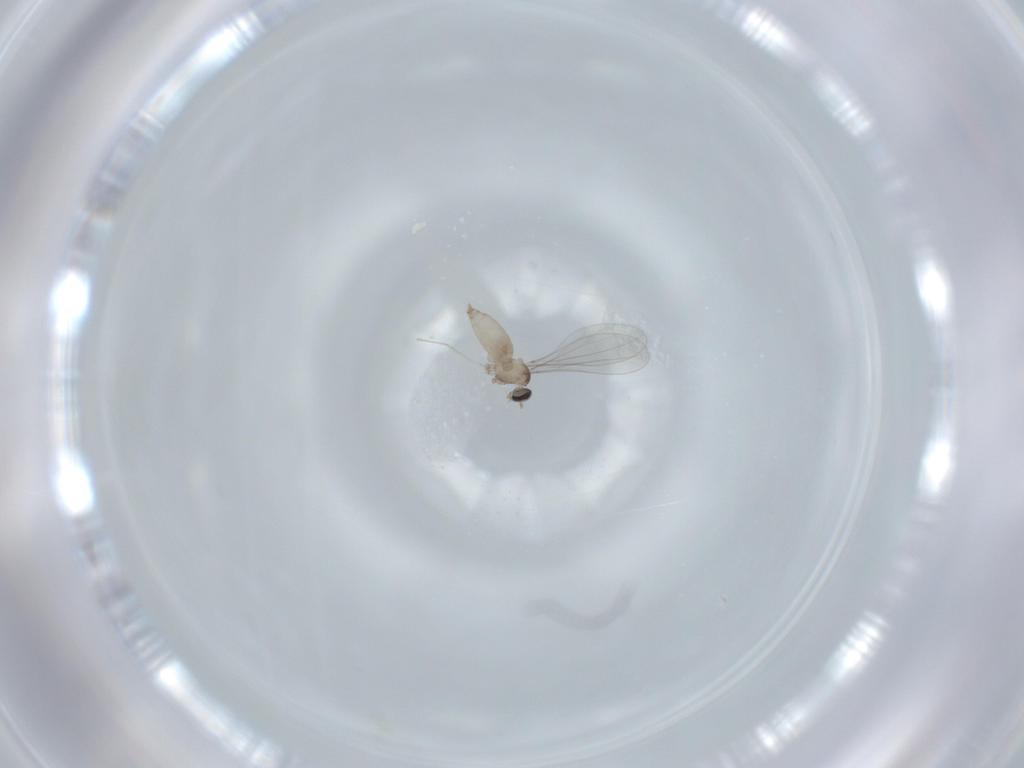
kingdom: Animalia
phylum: Arthropoda
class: Insecta
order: Diptera
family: Cecidomyiidae
